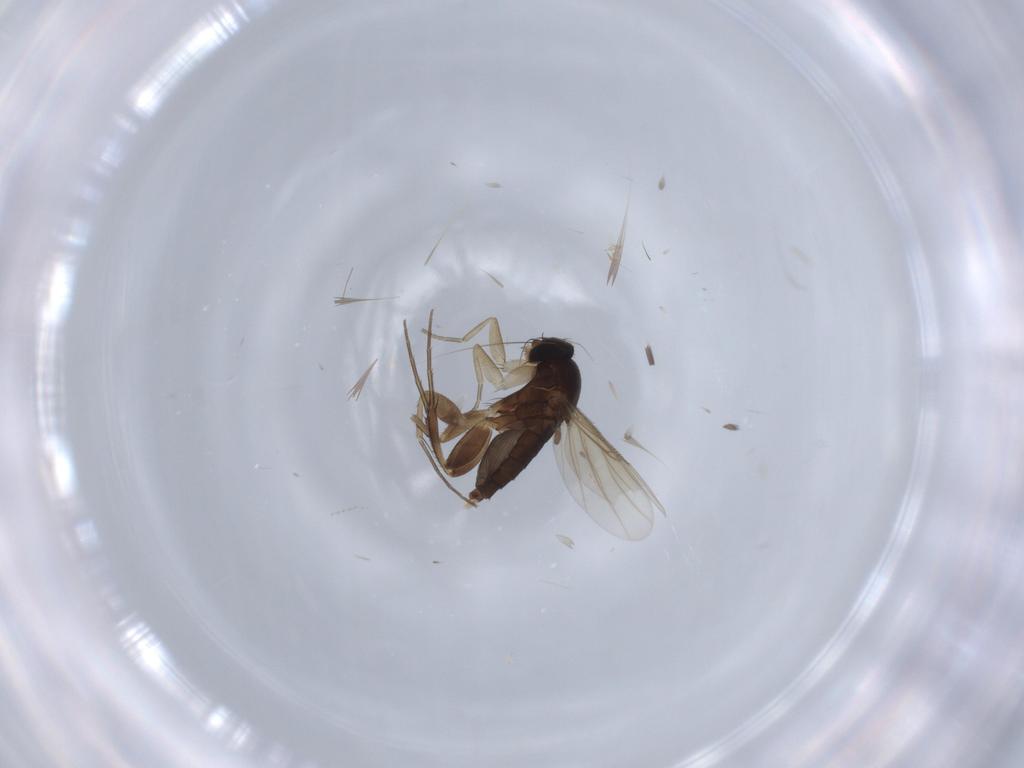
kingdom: Animalia
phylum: Arthropoda
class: Insecta
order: Diptera
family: Phoridae
